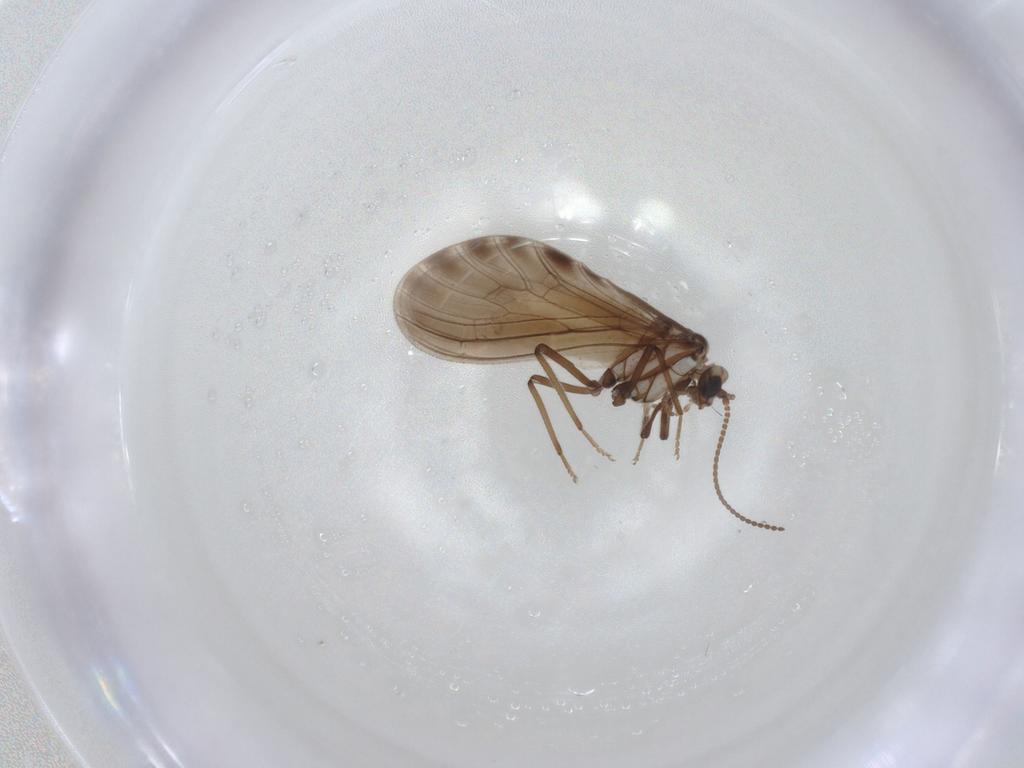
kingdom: Animalia
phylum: Arthropoda
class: Insecta
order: Neuroptera
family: Coniopterygidae
